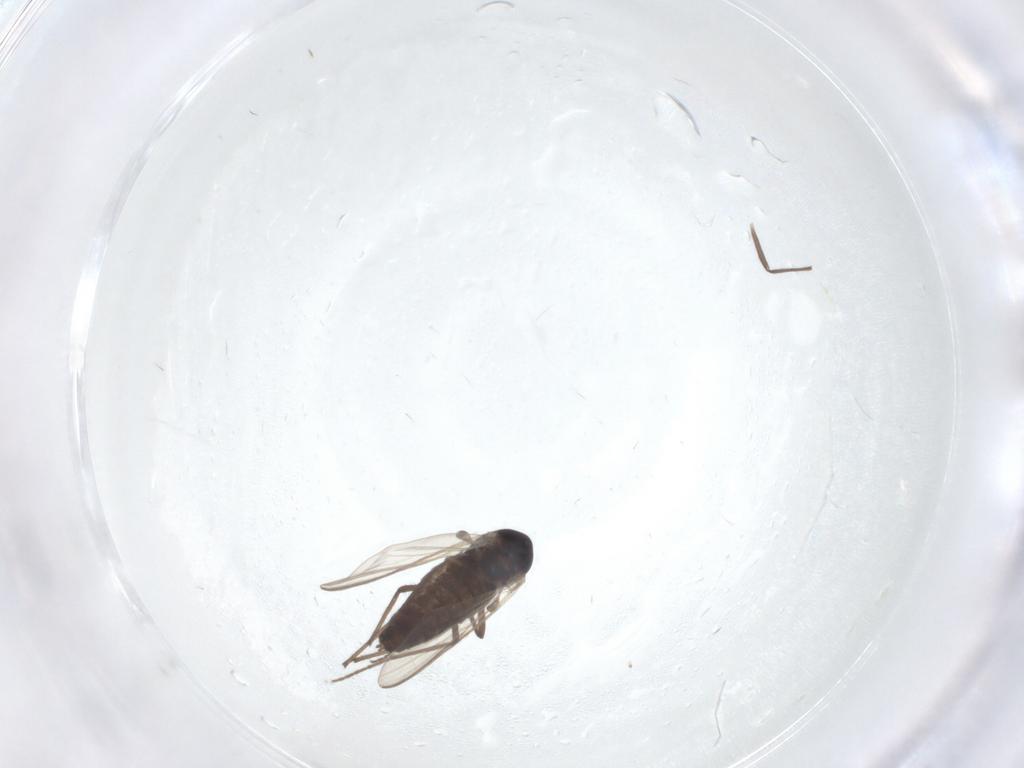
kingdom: Animalia
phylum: Arthropoda
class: Insecta
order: Diptera
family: Chironomidae
